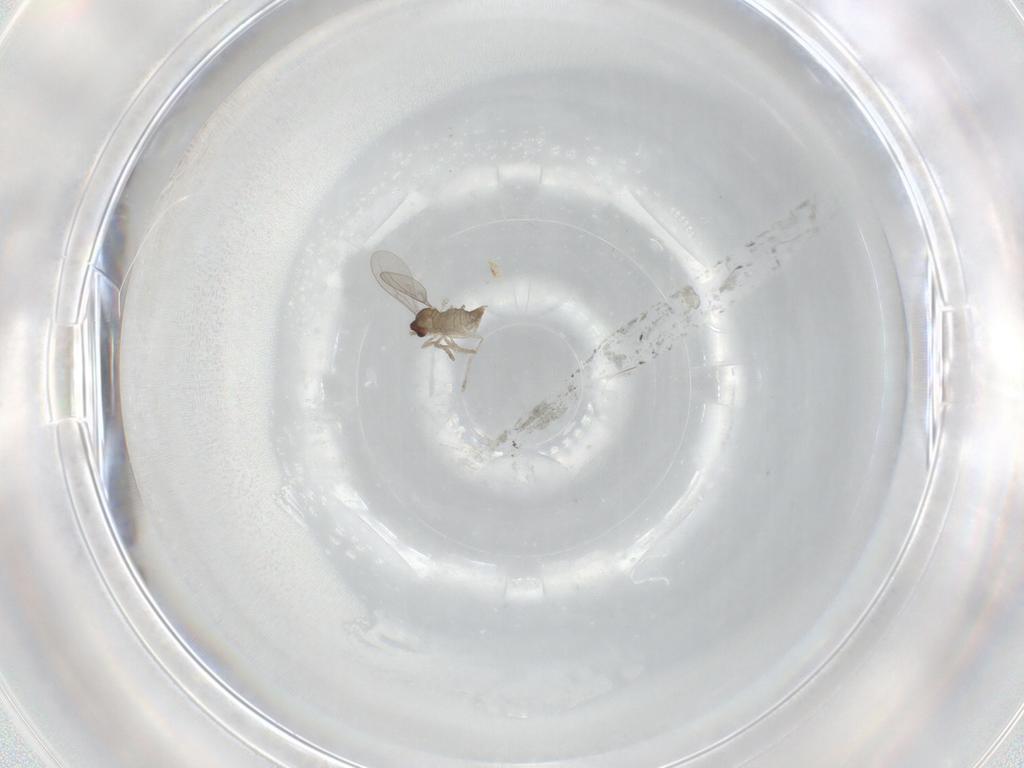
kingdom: Animalia
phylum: Arthropoda
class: Insecta
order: Diptera
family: Cecidomyiidae
